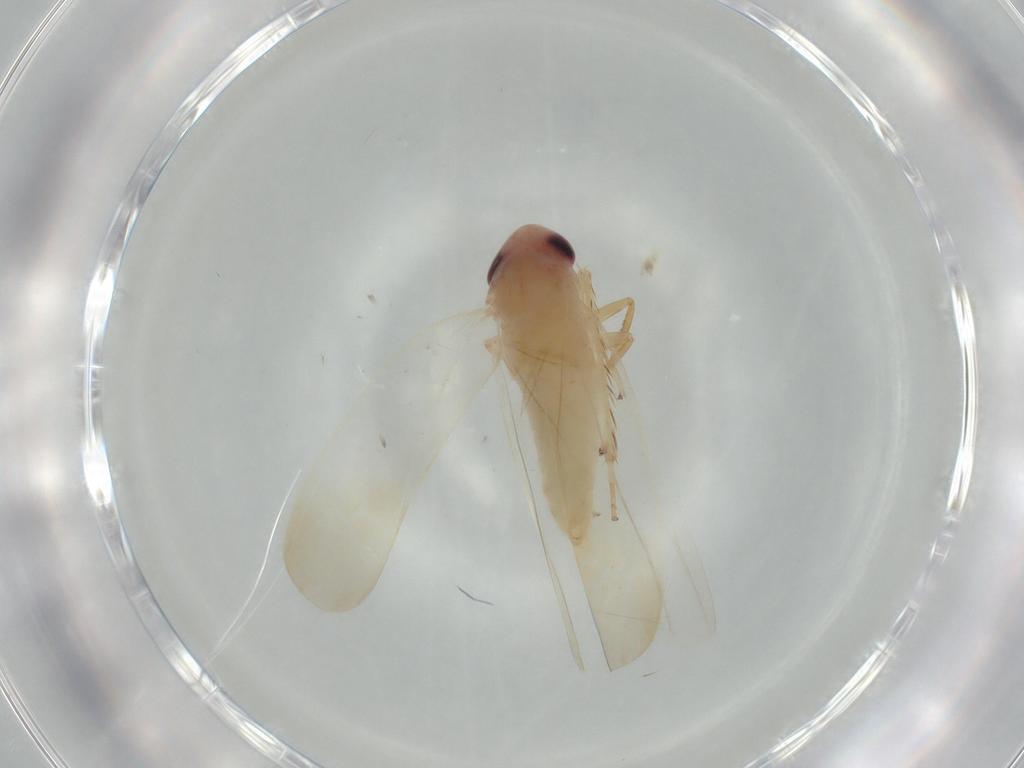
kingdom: Animalia
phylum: Arthropoda
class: Insecta
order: Hemiptera
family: Cicadellidae
